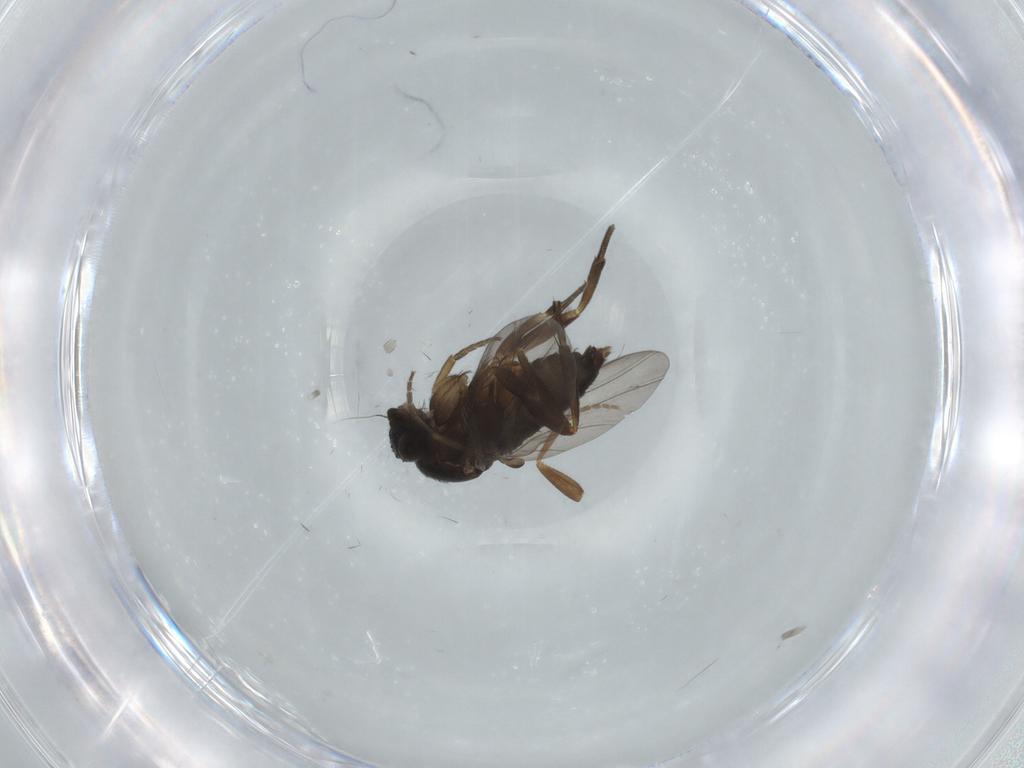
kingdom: Animalia
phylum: Arthropoda
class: Insecta
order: Diptera
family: Phoridae
